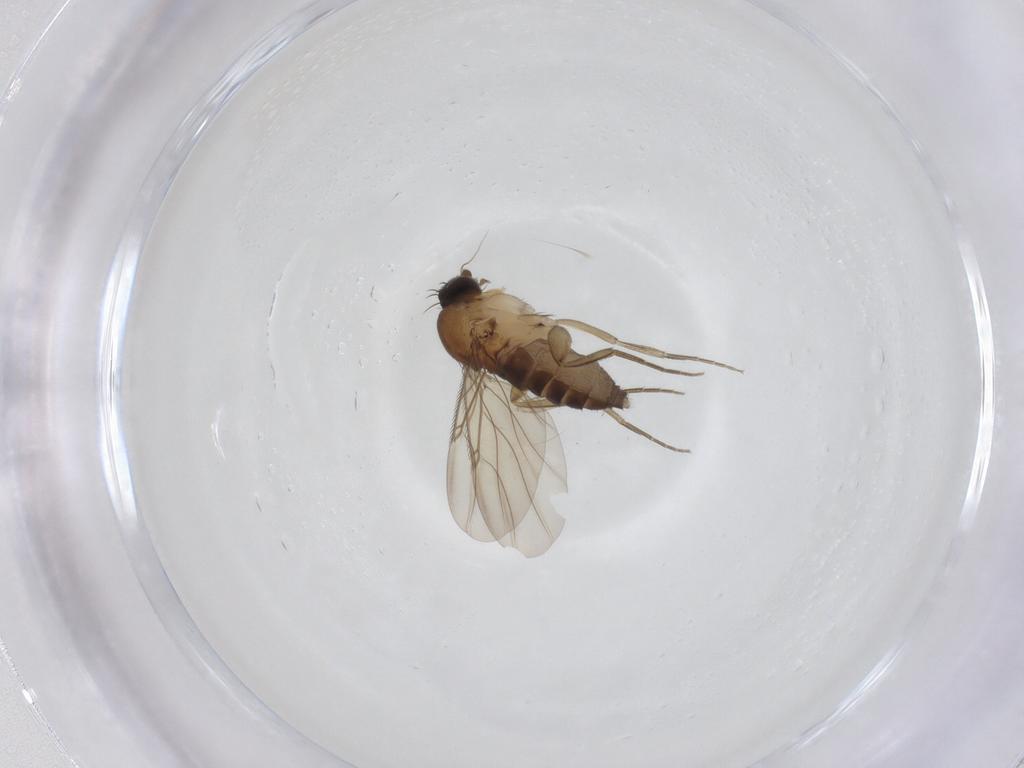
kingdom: Animalia
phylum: Arthropoda
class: Insecta
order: Diptera
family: Phoridae
